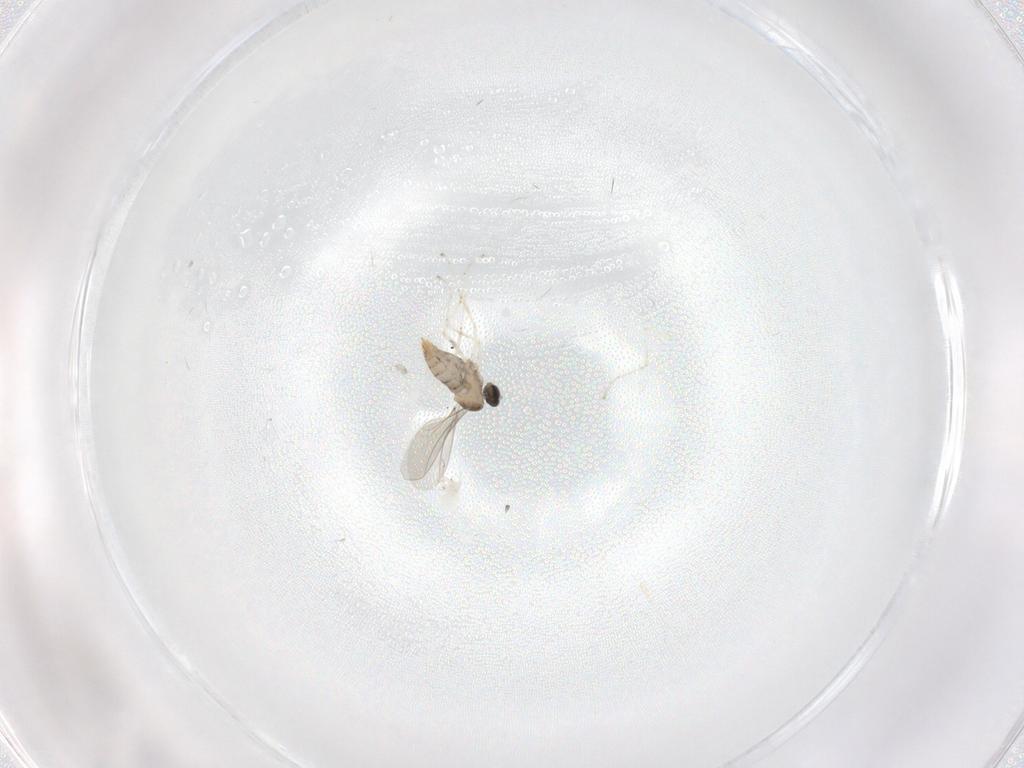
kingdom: Animalia
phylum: Arthropoda
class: Insecta
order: Diptera
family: Cecidomyiidae
